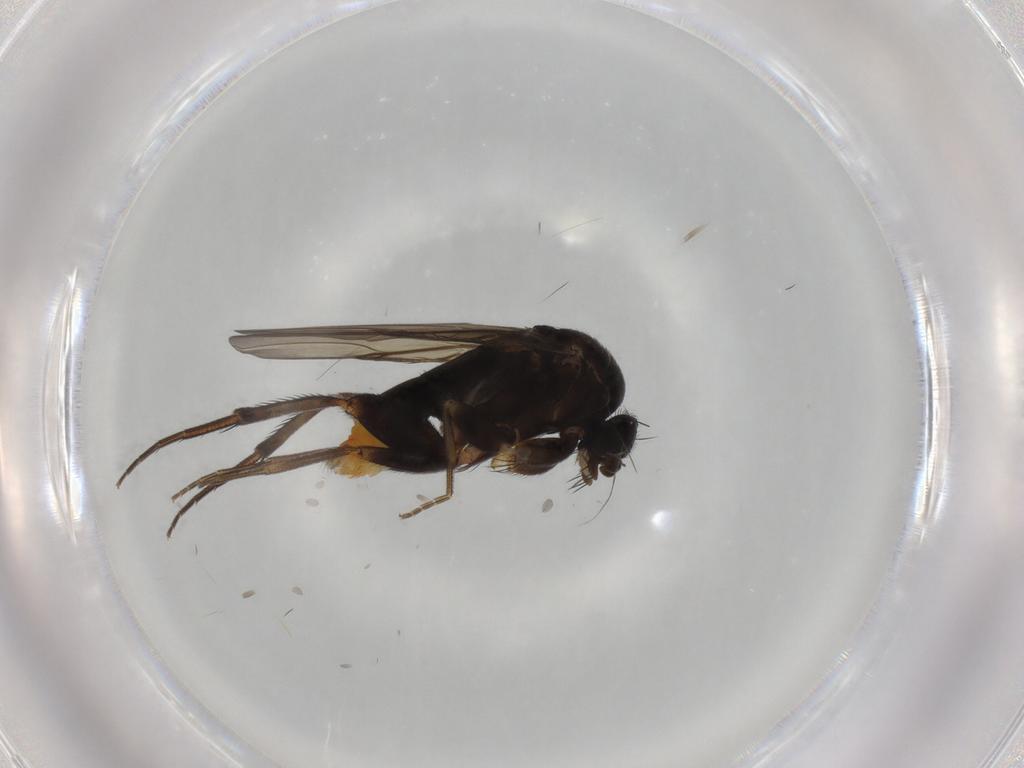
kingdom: Animalia
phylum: Arthropoda
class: Insecta
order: Diptera
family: Phoridae
